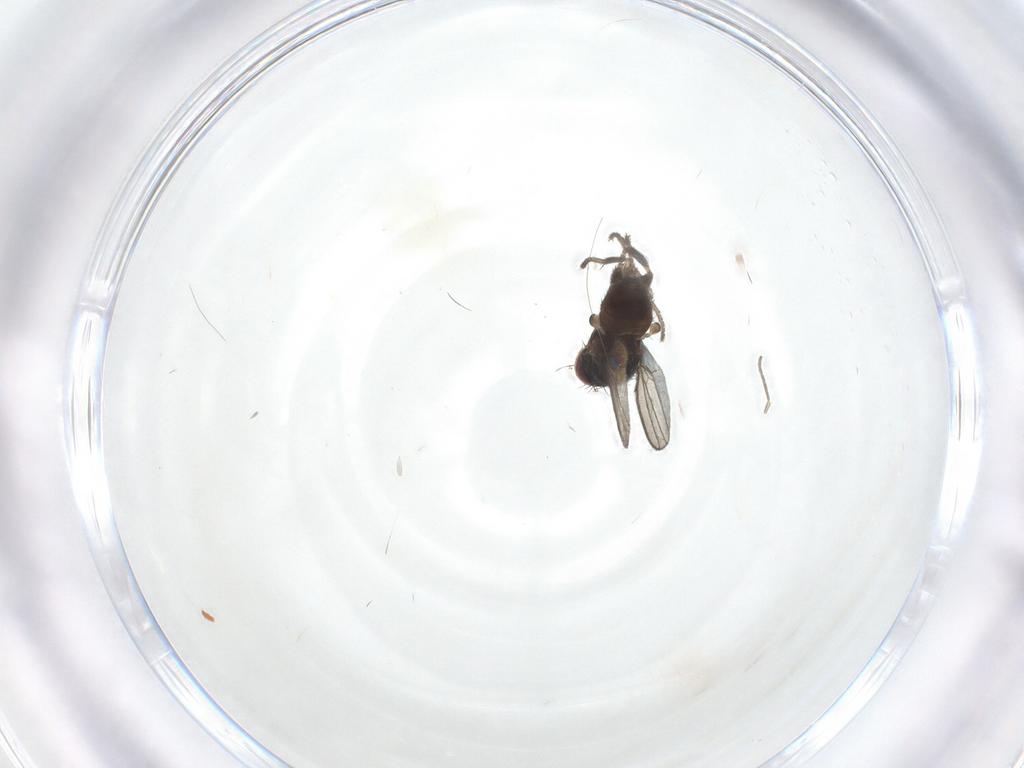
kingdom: Animalia
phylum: Arthropoda
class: Insecta
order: Diptera
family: Milichiidae
